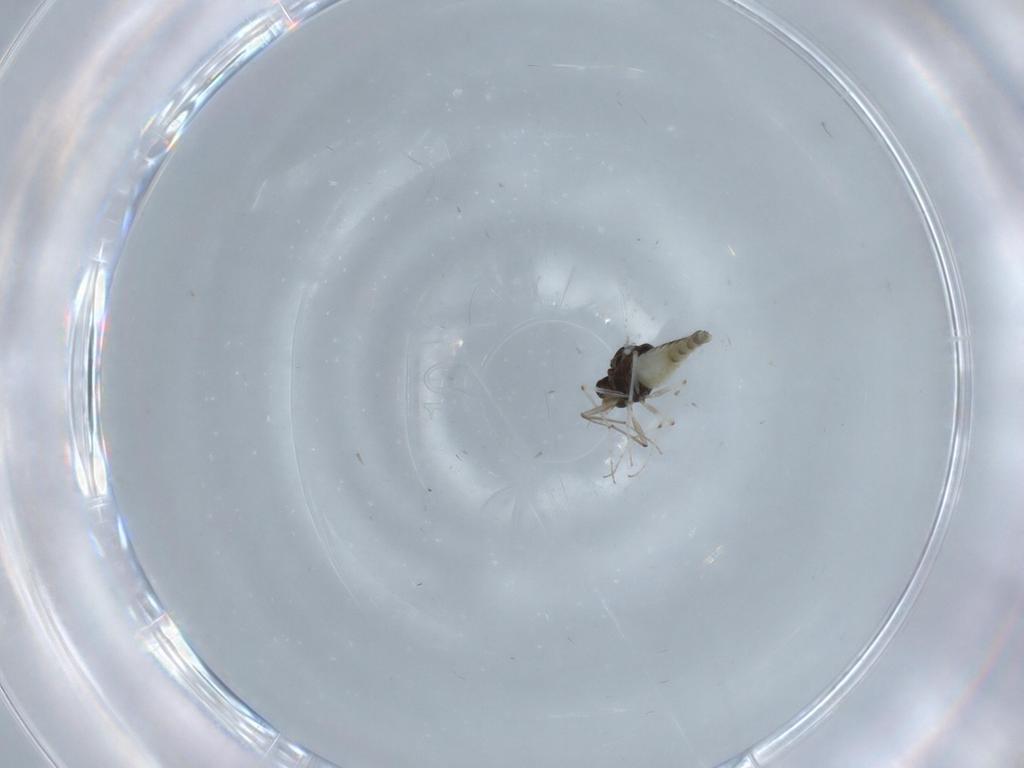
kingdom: Animalia
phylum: Arthropoda
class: Insecta
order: Diptera
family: Chironomidae
